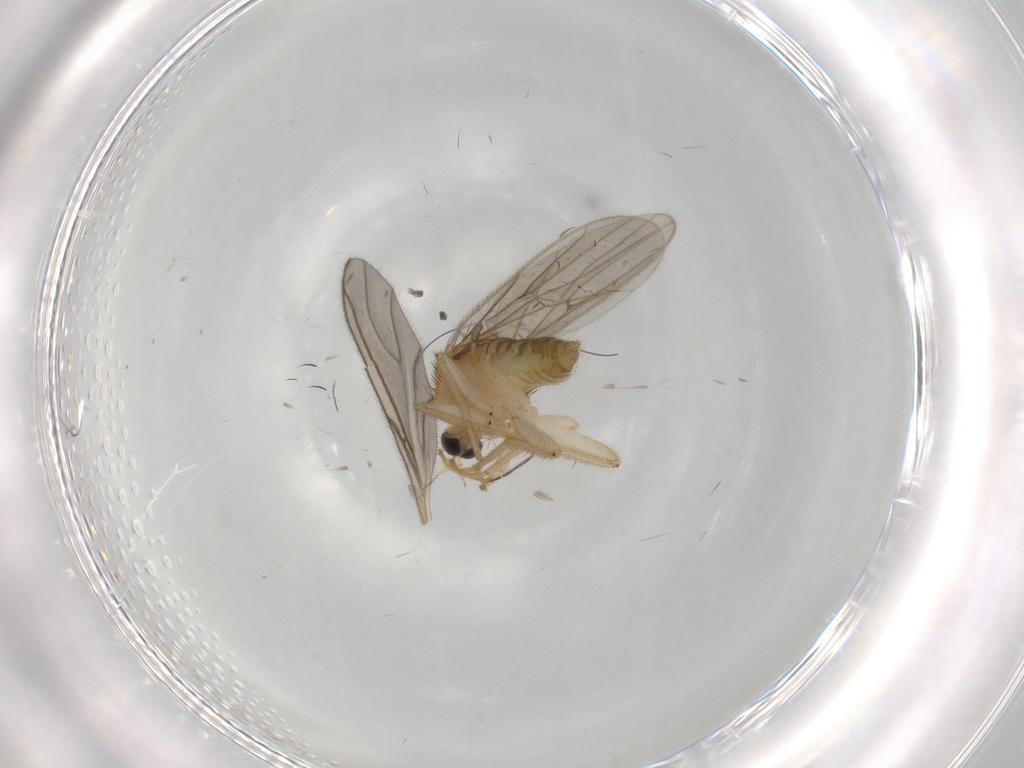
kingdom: Animalia
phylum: Arthropoda
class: Insecta
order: Diptera
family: Hybotidae
